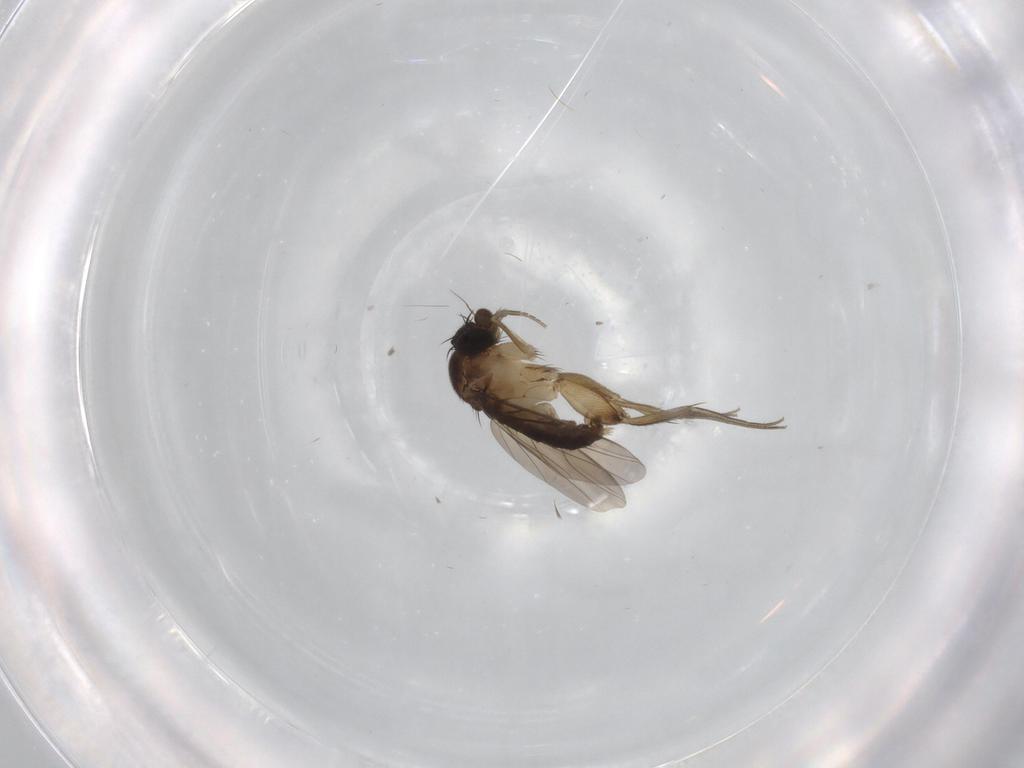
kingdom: Animalia
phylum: Arthropoda
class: Insecta
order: Diptera
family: Phoridae
